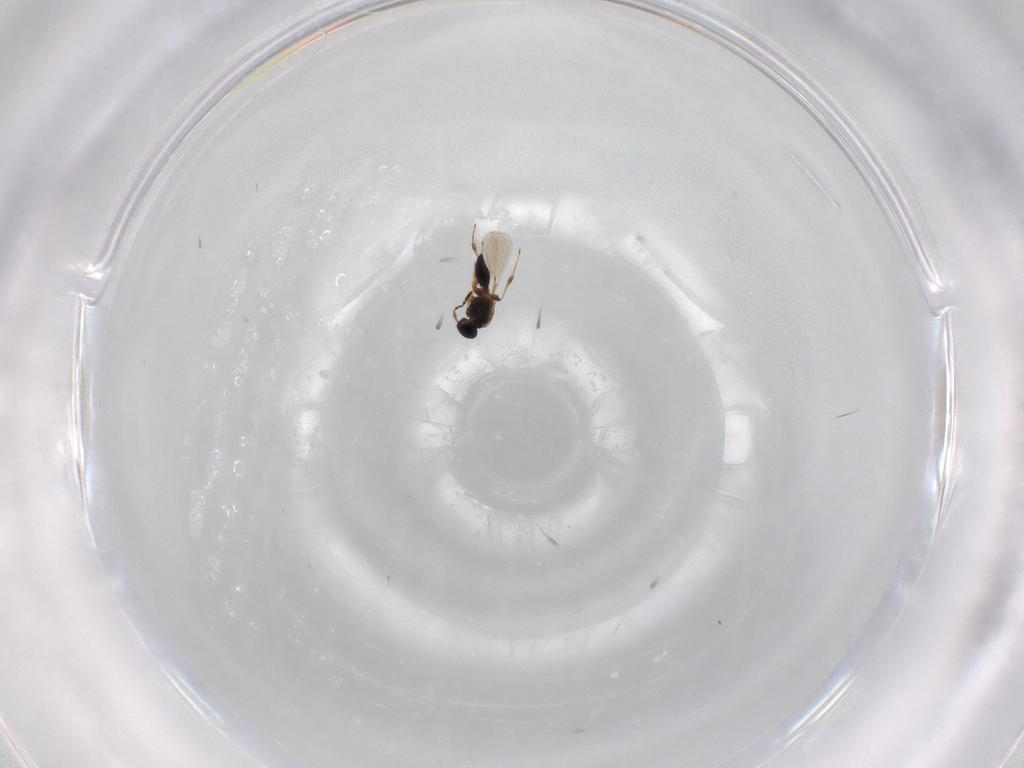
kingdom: Animalia
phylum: Arthropoda
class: Insecta
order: Hymenoptera
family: Platygastridae
